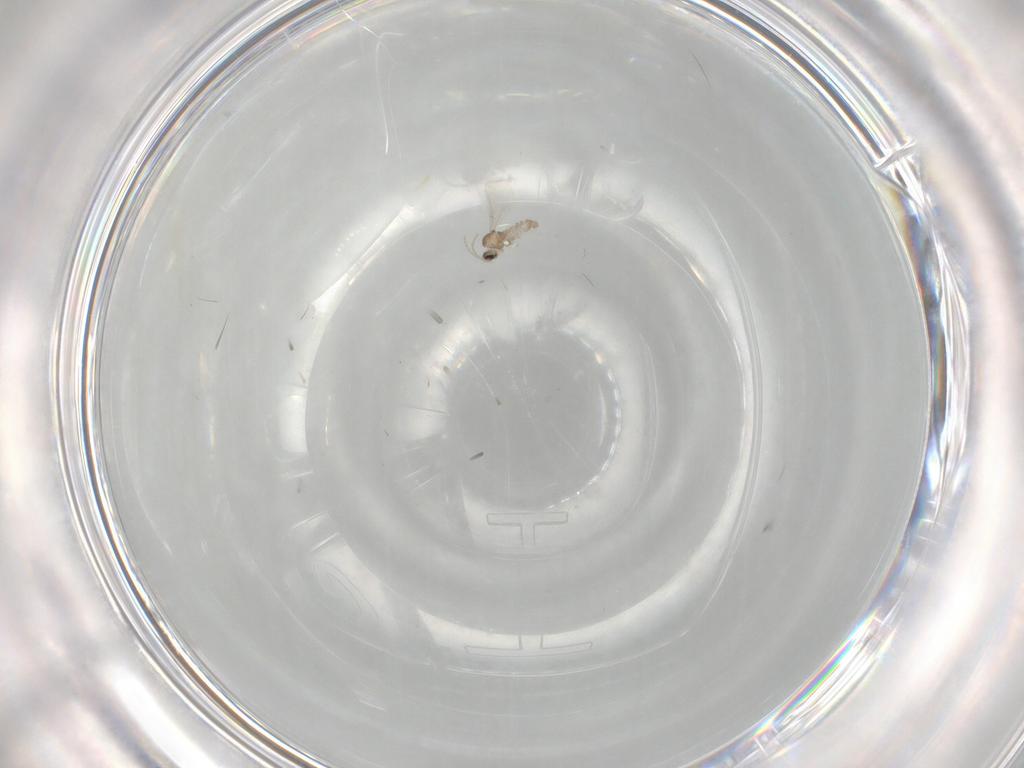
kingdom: Animalia
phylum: Arthropoda
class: Insecta
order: Diptera
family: Cecidomyiidae
